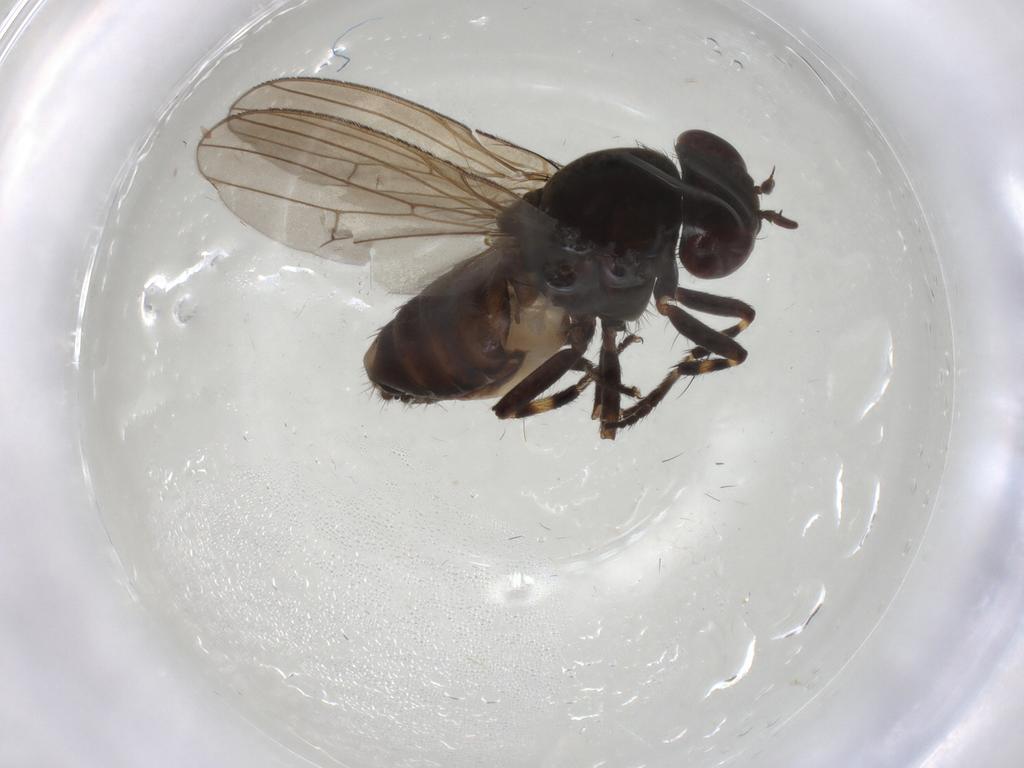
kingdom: Animalia
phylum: Arthropoda
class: Insecta
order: Diptera
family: Lauxaniidae
